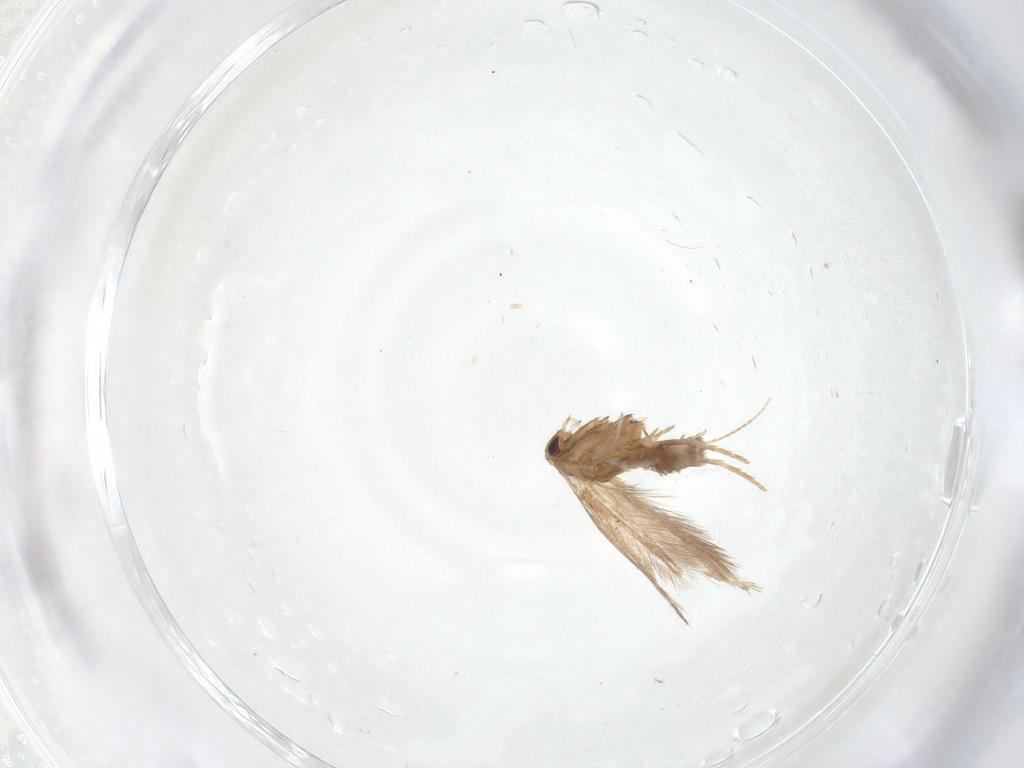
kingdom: Animalia
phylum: Arthropoda
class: Insecta
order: Lepidoptera
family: Gracillariidae
